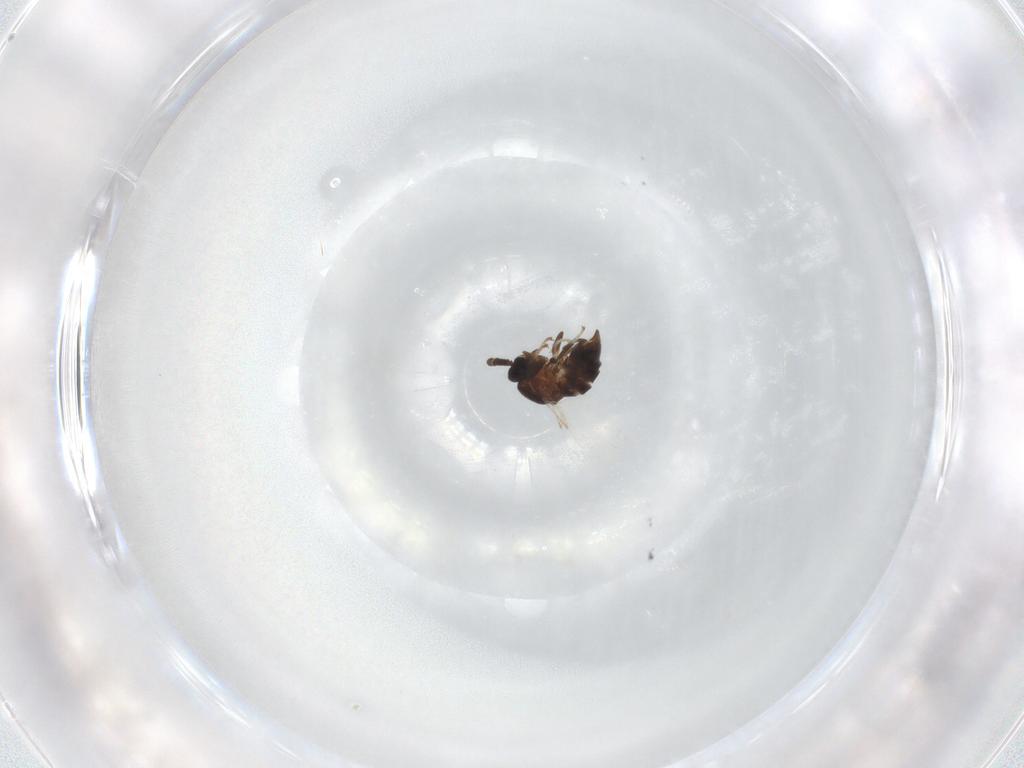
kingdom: Animalia
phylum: Arthropoda
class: Insecta
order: Diptera
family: Scatopsidae
